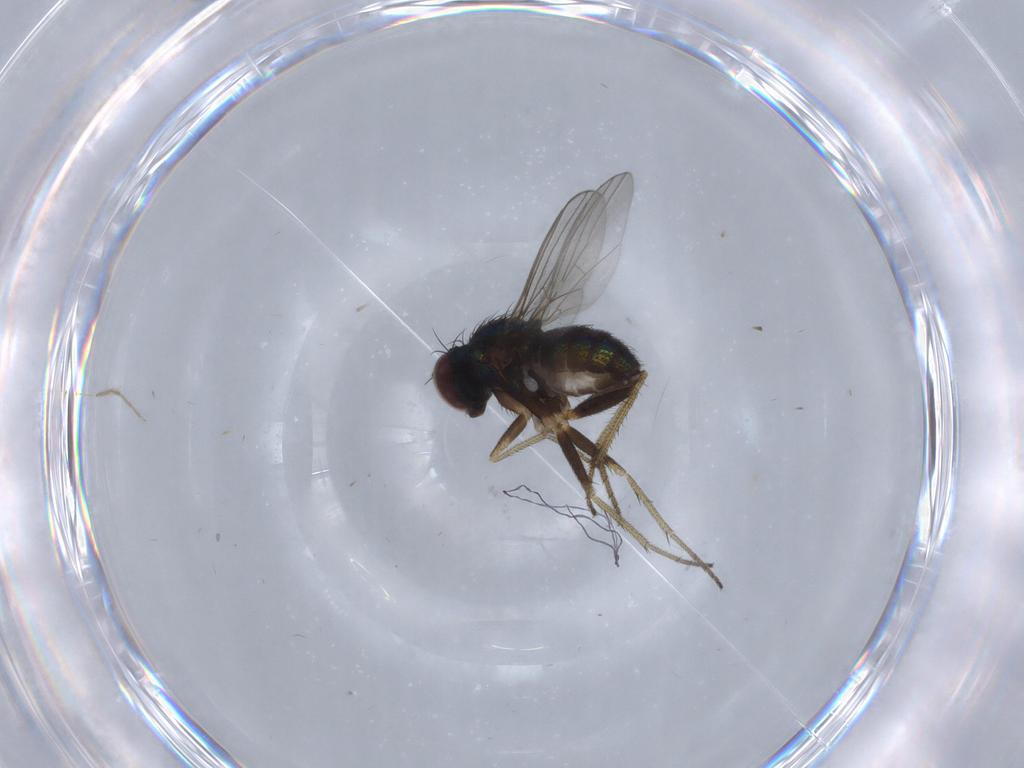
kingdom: Animalia
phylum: Arthropoda
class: Insecta
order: Diptera
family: Chironomidae
